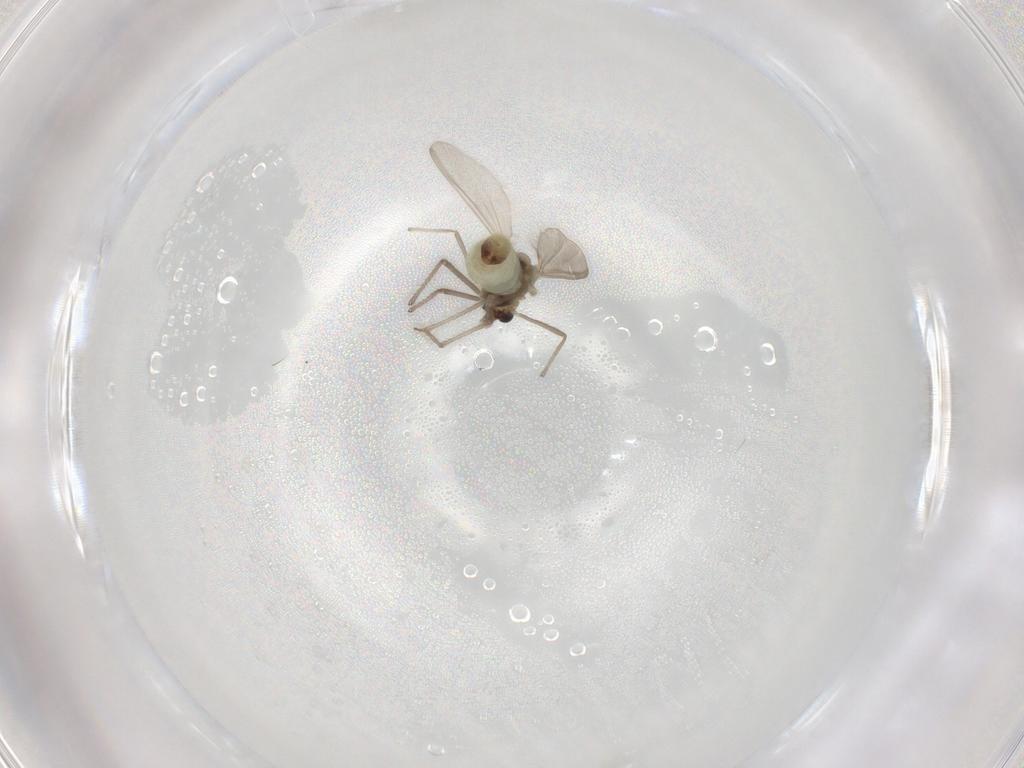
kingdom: Animalia
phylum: Arthropoda
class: Insecta
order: Diptera
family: Chironomidae
